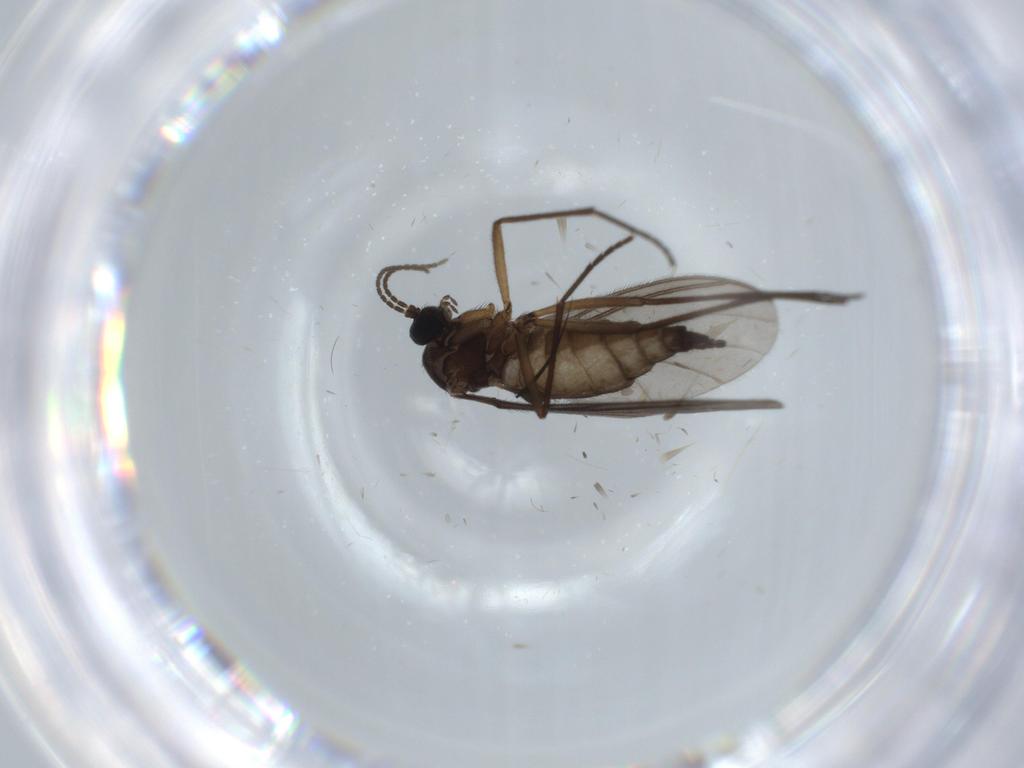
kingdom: Animalia
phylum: Arthropoda
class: Insecta
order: Diptera
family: Sciaridae
